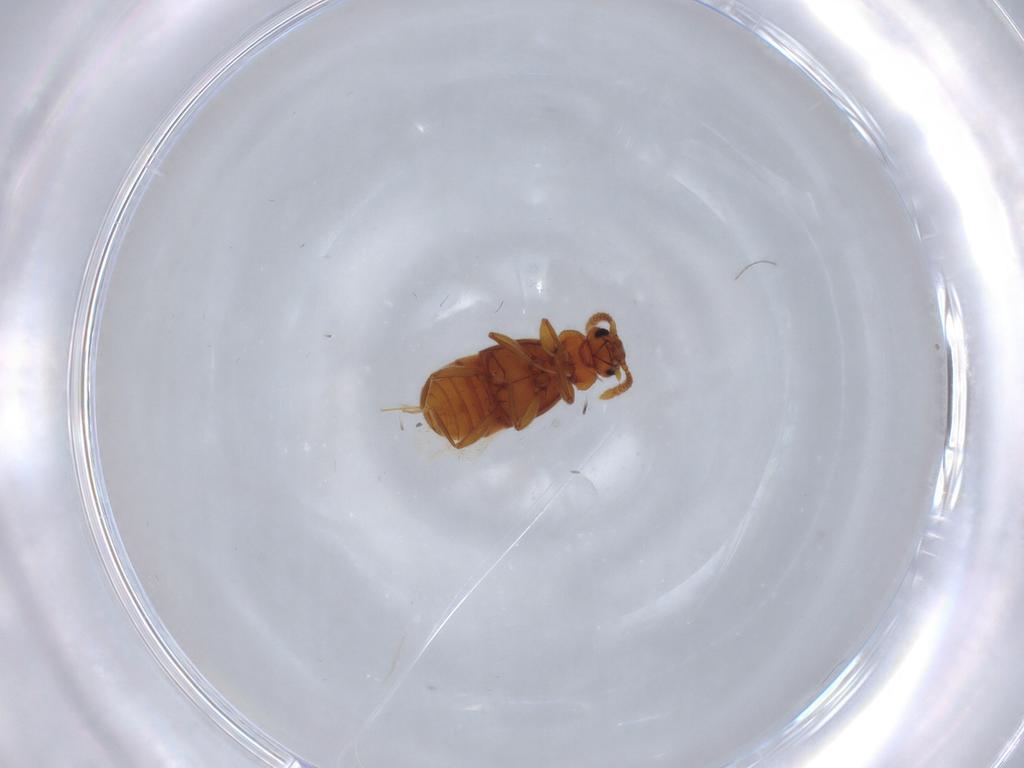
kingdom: Animalia
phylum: Arthropoda
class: Insecta
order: Coleoptera
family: Staphylinidae
